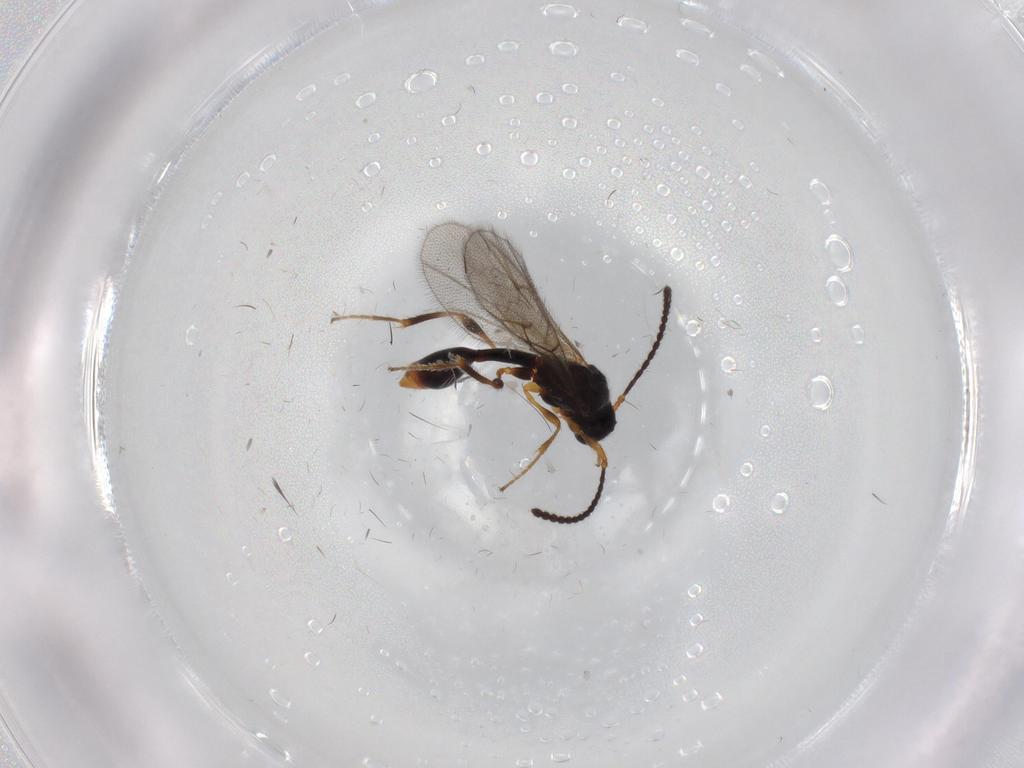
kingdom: Animalia
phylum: Arthropoda
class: Insecta
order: Hymenoptera
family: Diapriidae
